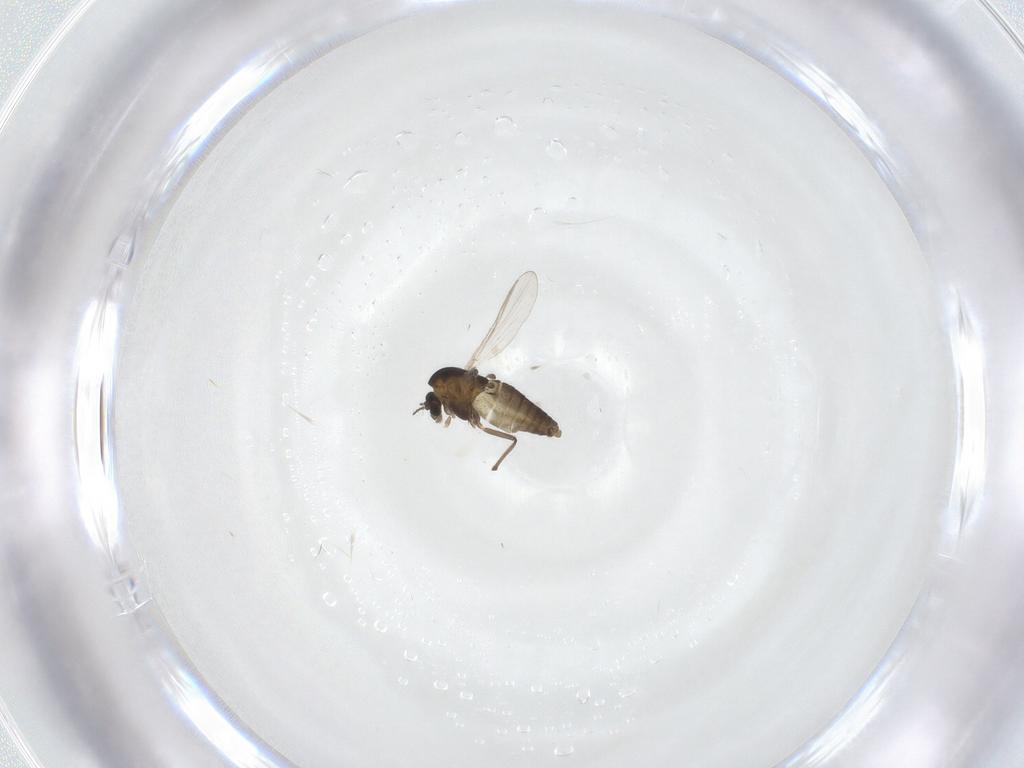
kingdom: Animalia
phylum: Arthropoda
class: Insecta
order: Diptera
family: Chironomidae
